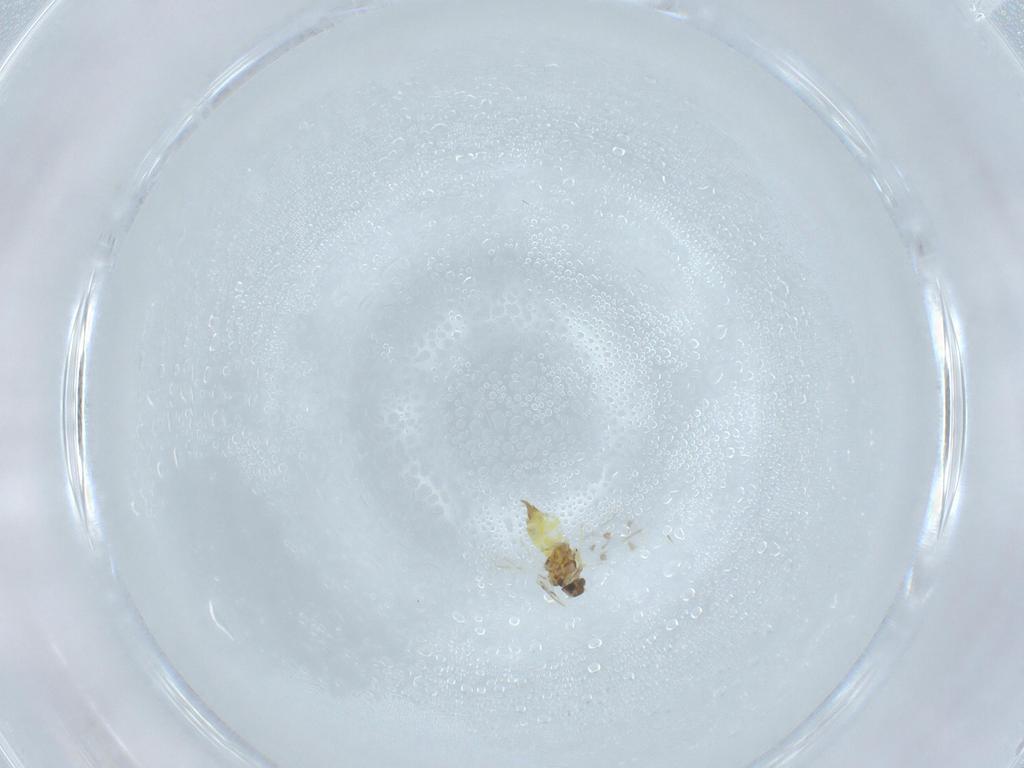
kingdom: Animalia
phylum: Arthropoda
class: Insecta
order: Hemiptera
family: Aleyrodidae
